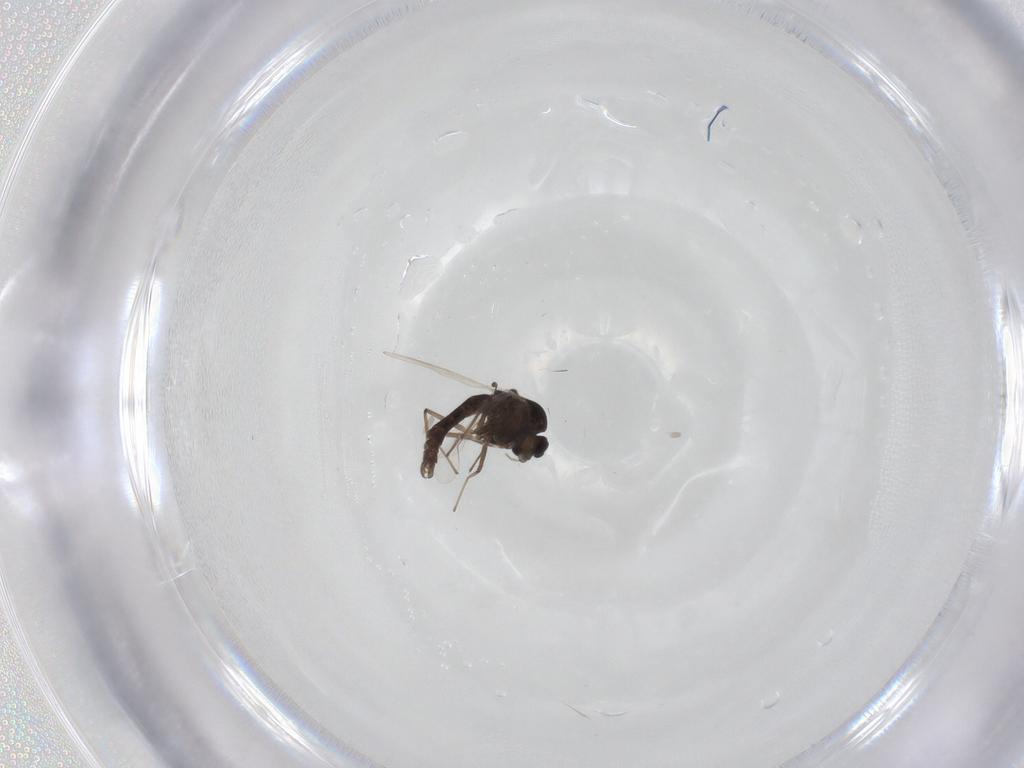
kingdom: Animalia
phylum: Arthropoda
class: Insecta
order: Diptera
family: Chironomidae
